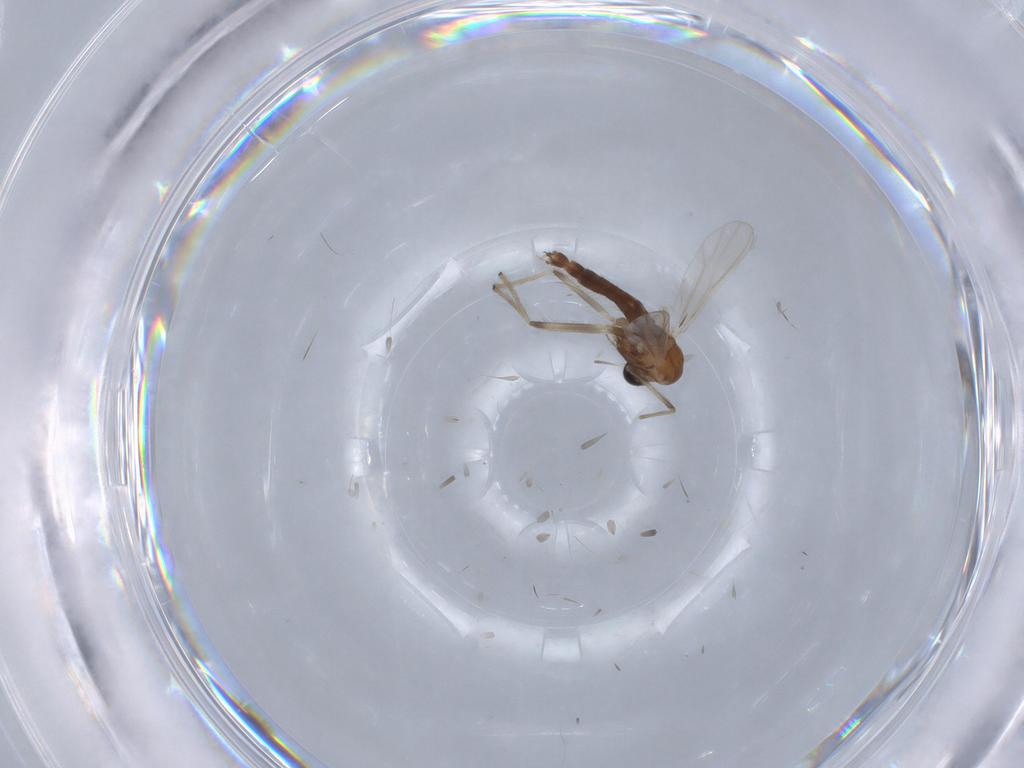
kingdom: Animalia
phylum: Arthropoda
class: Insecta
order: Diptera
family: Chironomidae
